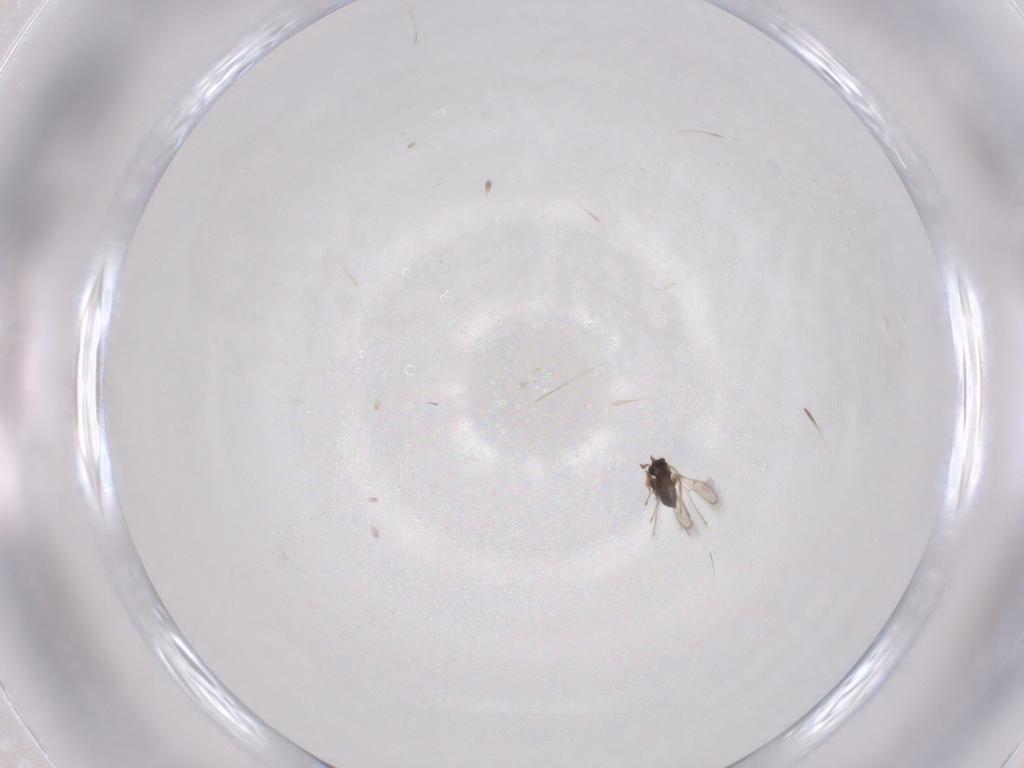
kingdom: Animalia
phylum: Arthropoda
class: Insecta
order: Hymenoptera
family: Trichogrammatidae
